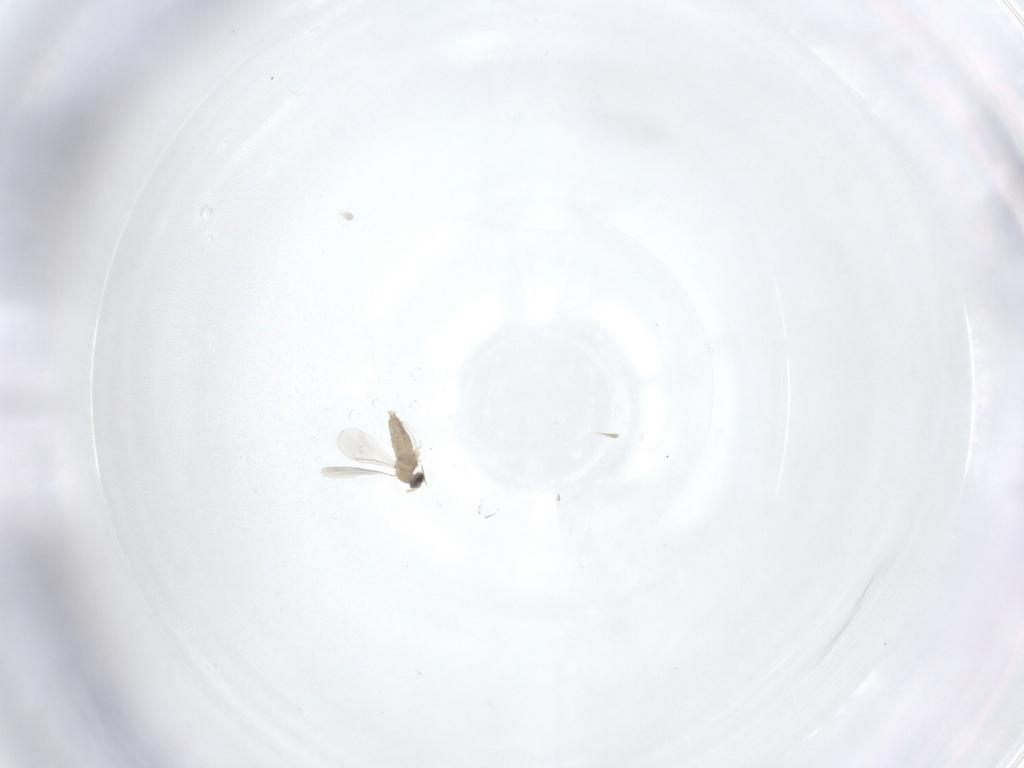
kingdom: Animalia
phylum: Arthropoda
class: Insecta
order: Diptera
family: Cecidomyiidae
